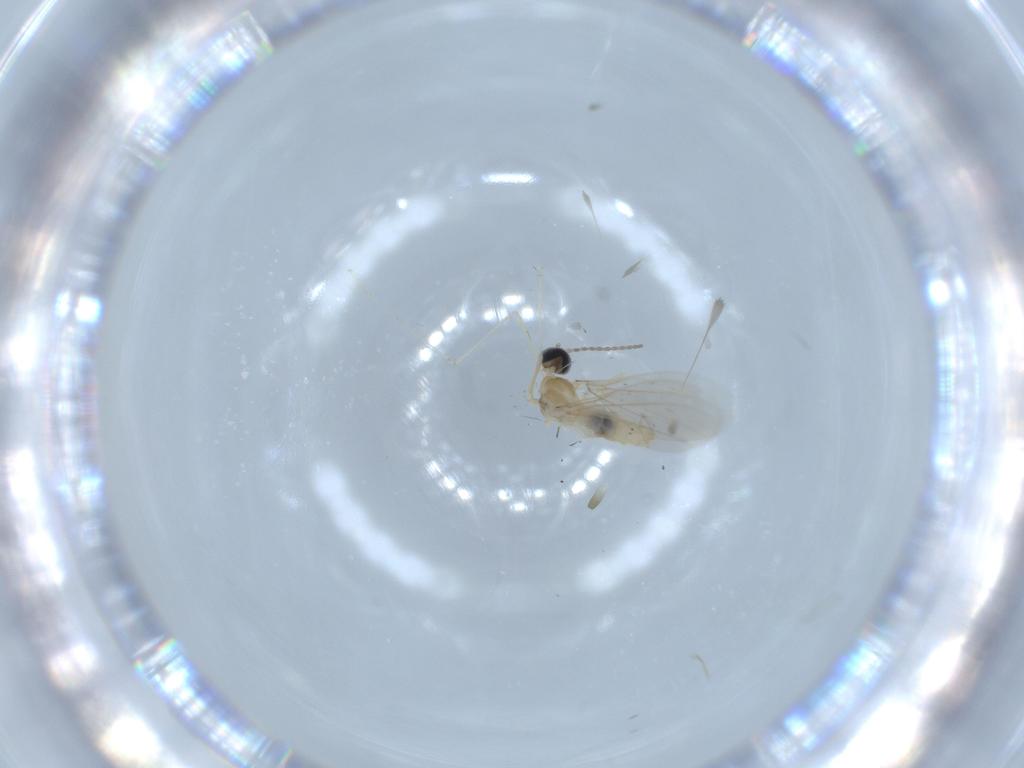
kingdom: Animalia
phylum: Arthropoda
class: Insecta
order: Diptera
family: Cecidomyiidae
